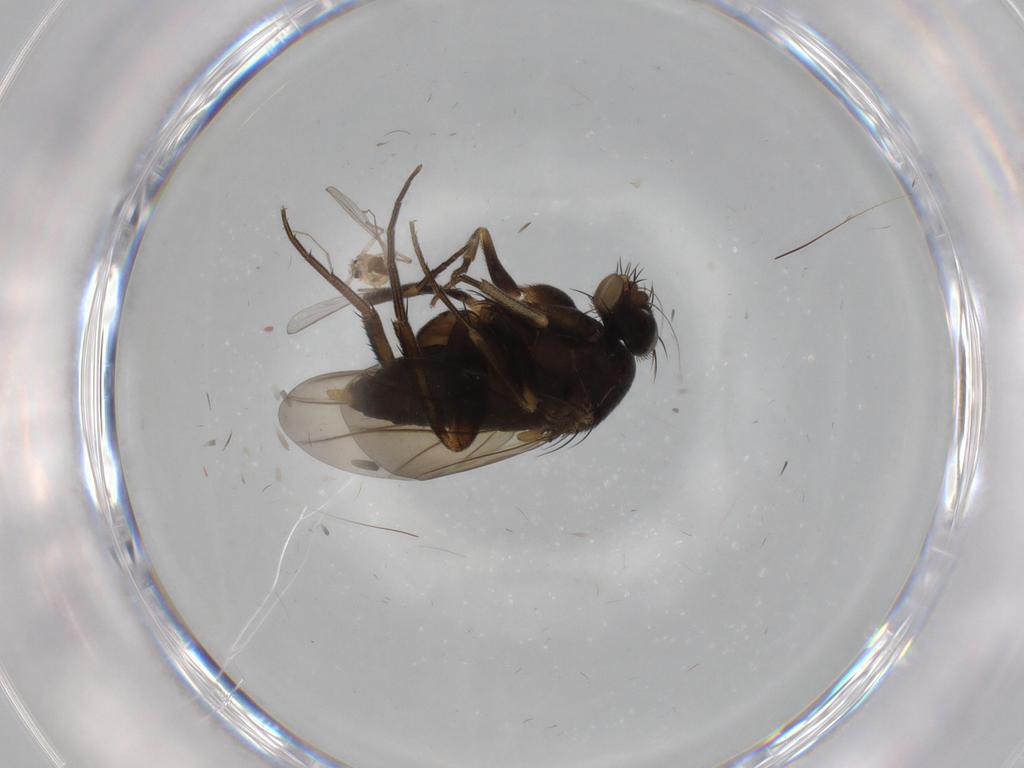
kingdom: Animalia
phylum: Arthropoda
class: Insecta
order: Diptera
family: Phoridae
